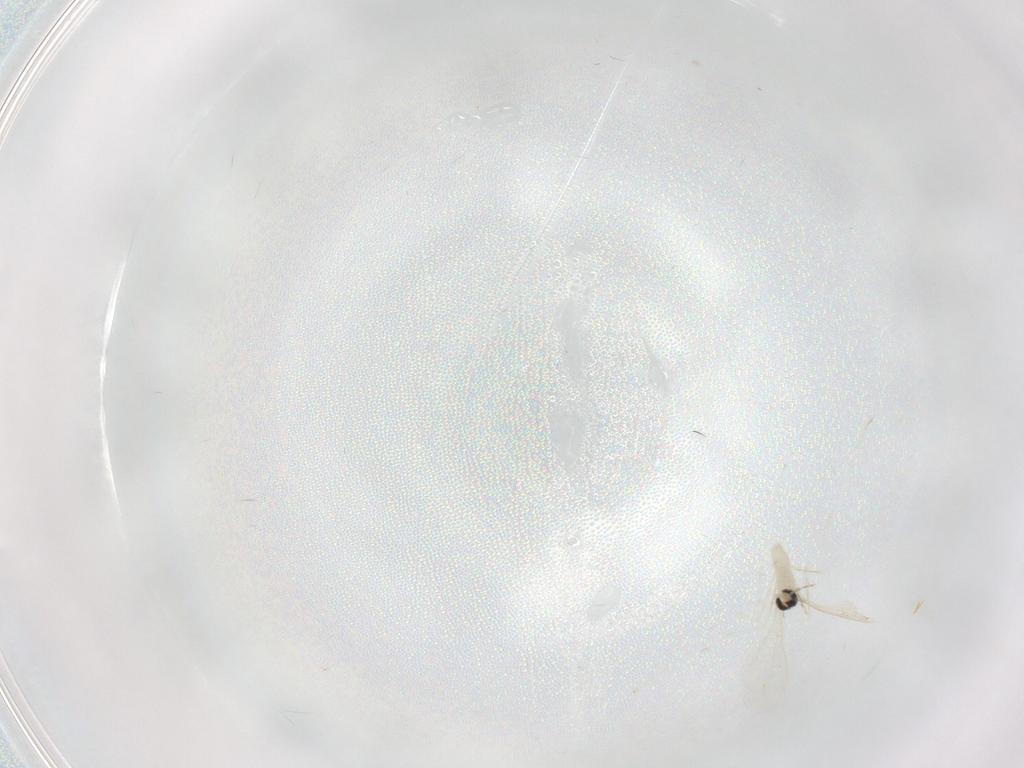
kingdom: Animalia
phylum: Arthropoda
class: Insecta
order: Diptera
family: Cecidomyiidae
